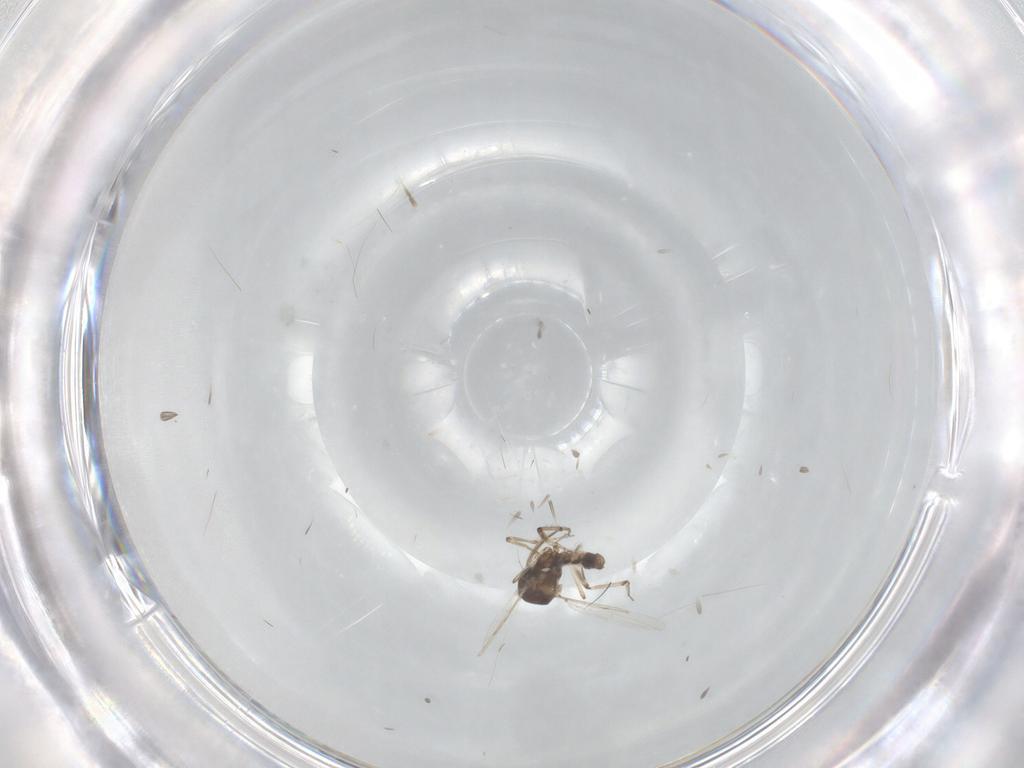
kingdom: Animalia
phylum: Arthropoda
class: Insecta
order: Diptera
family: Ceratopogonidae
